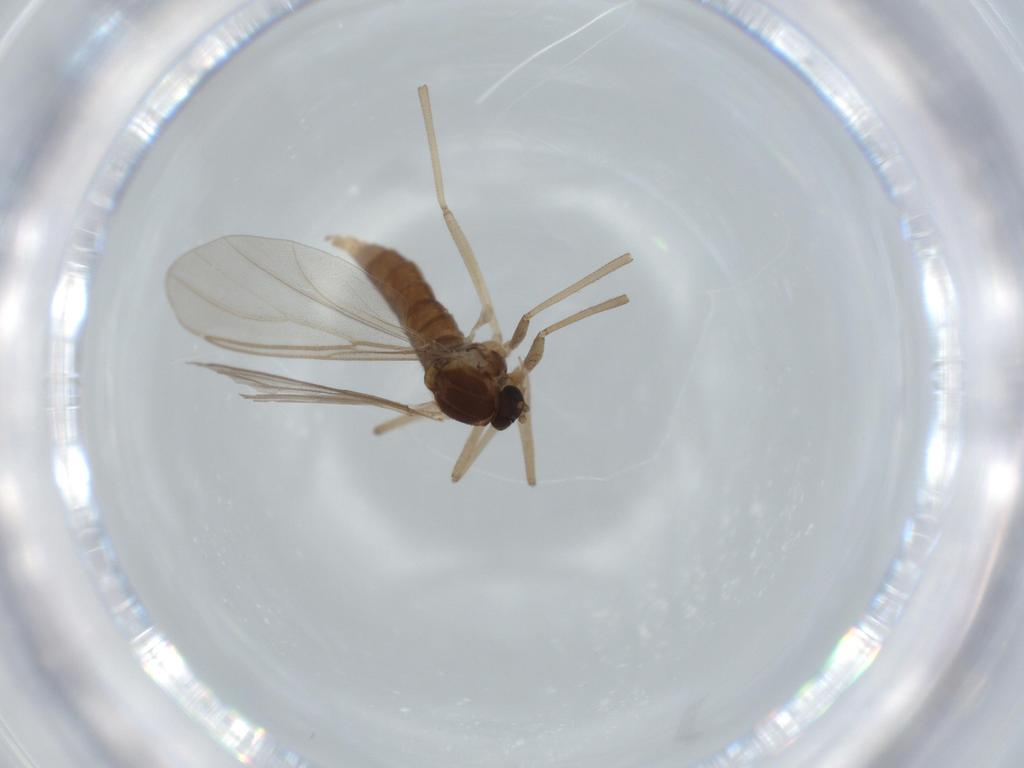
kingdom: Animalia
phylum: Arthropoda
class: Insecta
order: Diptera
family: Cecidomyiidae
